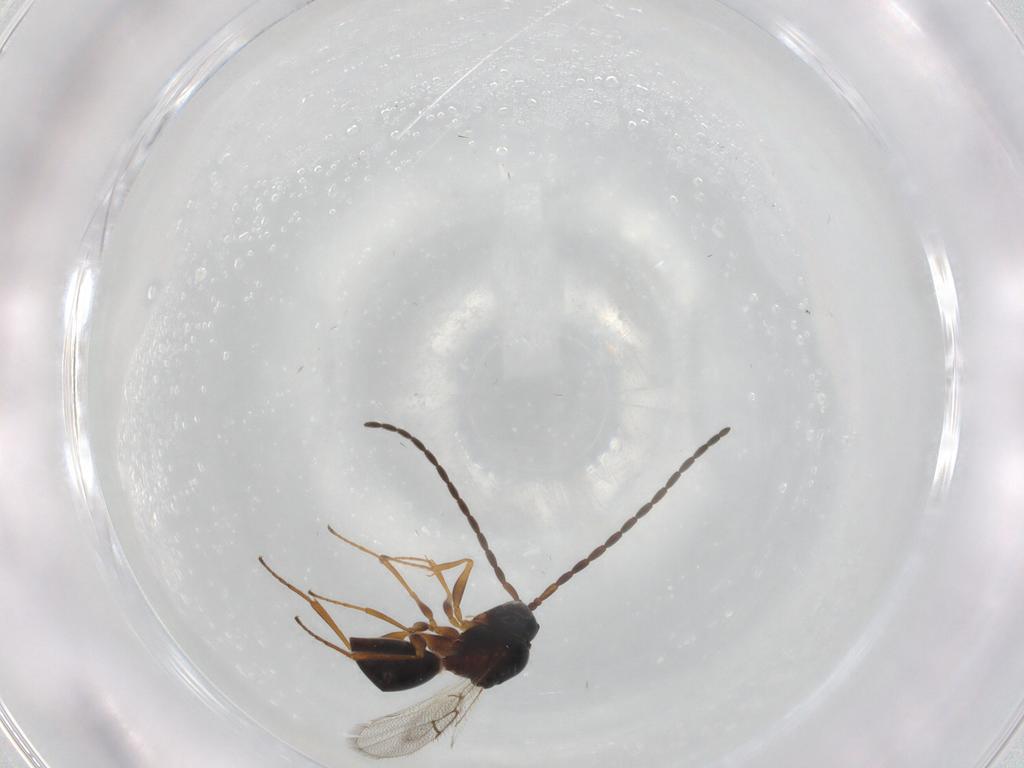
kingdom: Animalia
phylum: Arthropoda
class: Insecta
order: Hymenoptera
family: Figitidae
